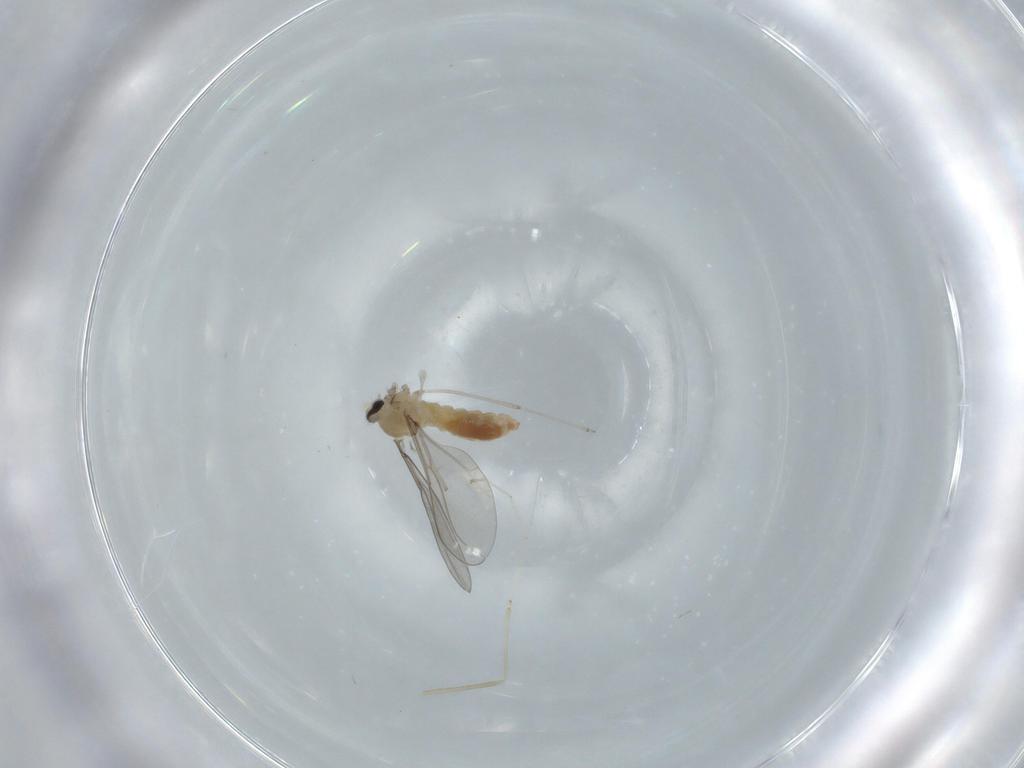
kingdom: Animalia
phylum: Arthropoda
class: Insecta
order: Diptera
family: Cecidomyiidae
